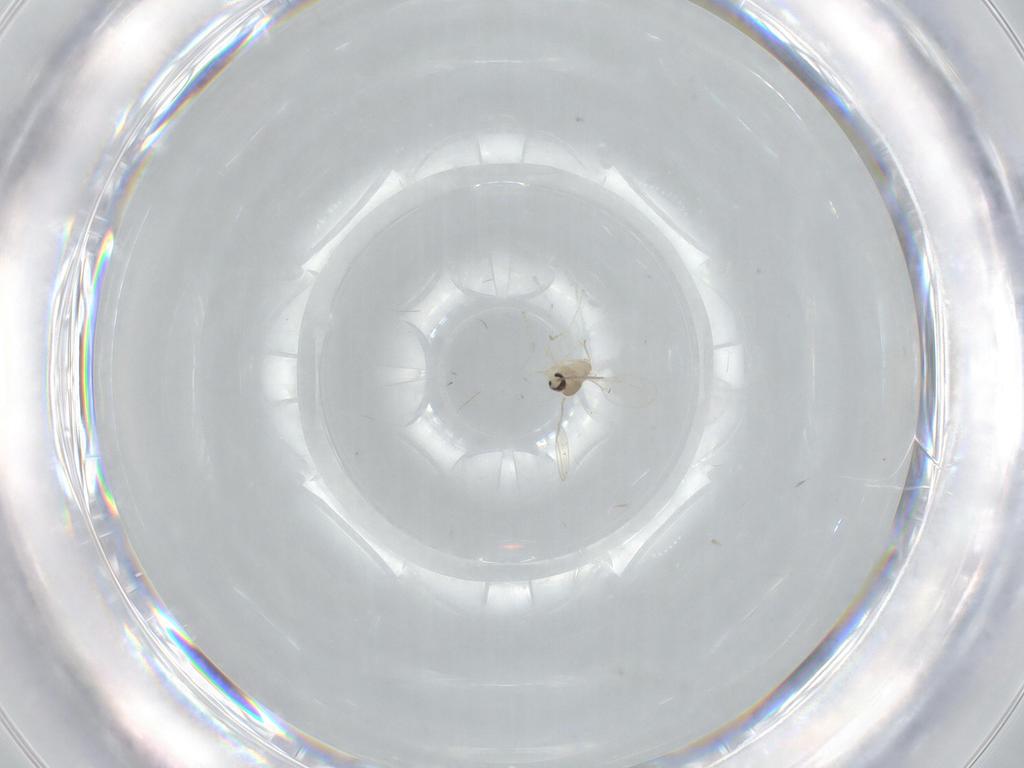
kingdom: Animalia
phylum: Arthropoda
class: Insecta
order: Diptera
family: Cecidomyiidae
